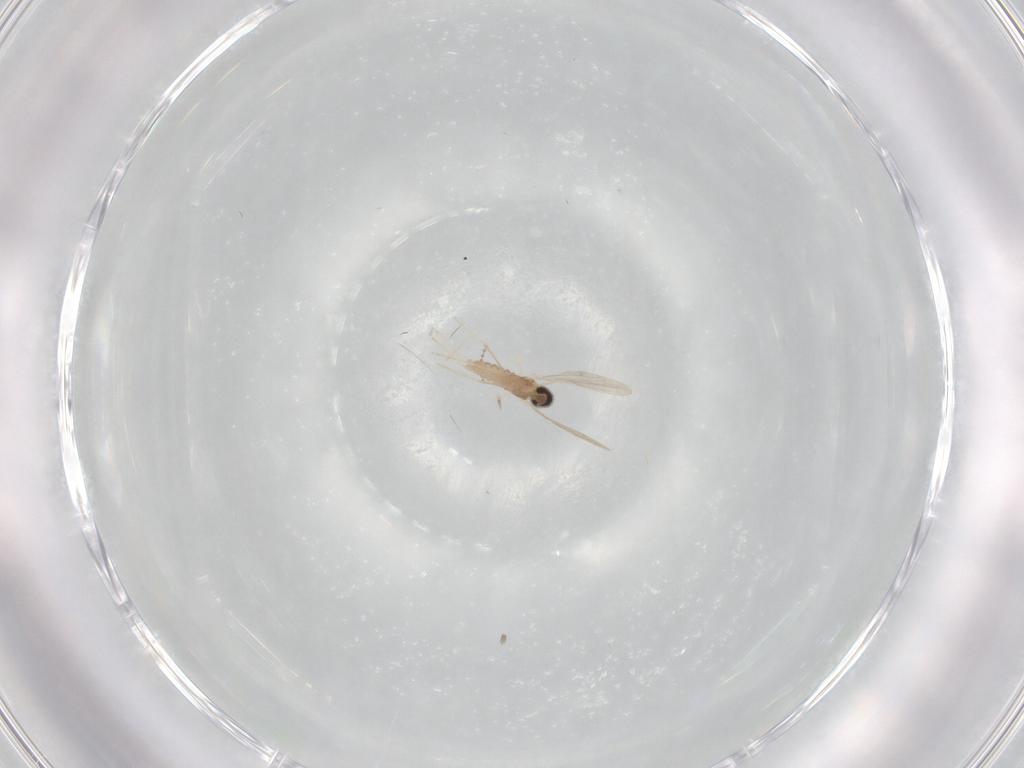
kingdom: Animalia
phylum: Arthropoda
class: Insecta
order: Diptera
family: Cecidomyiidae
